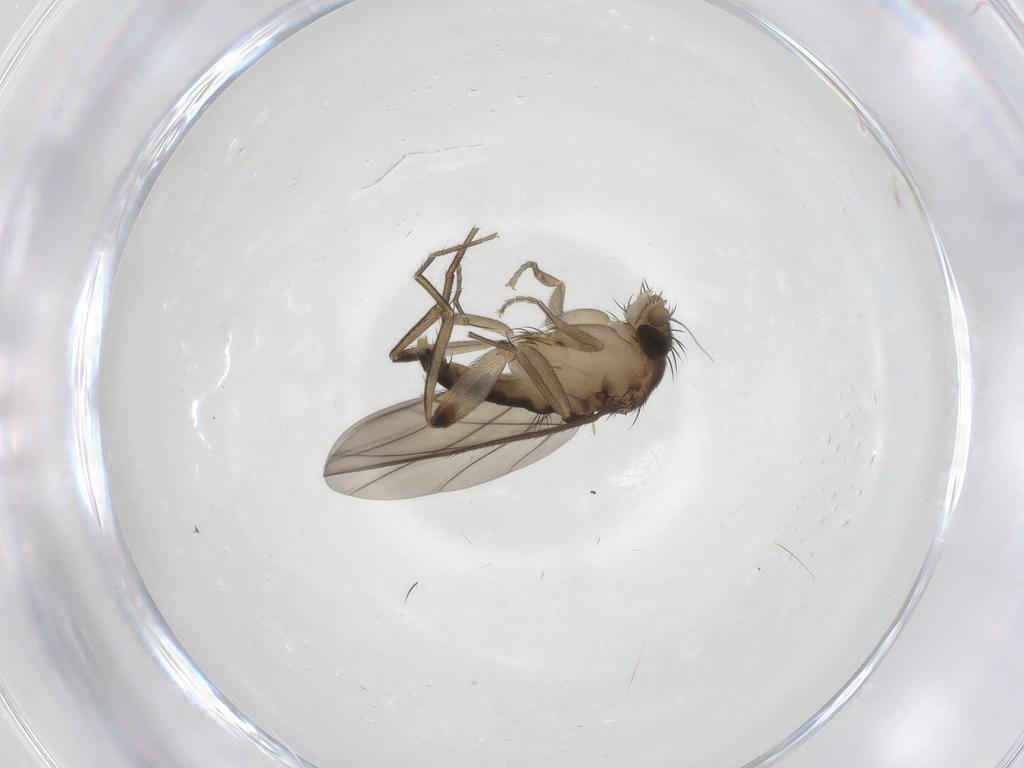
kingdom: Animalia
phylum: Arthropoda
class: Insecta
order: Diptera
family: Phoridae
